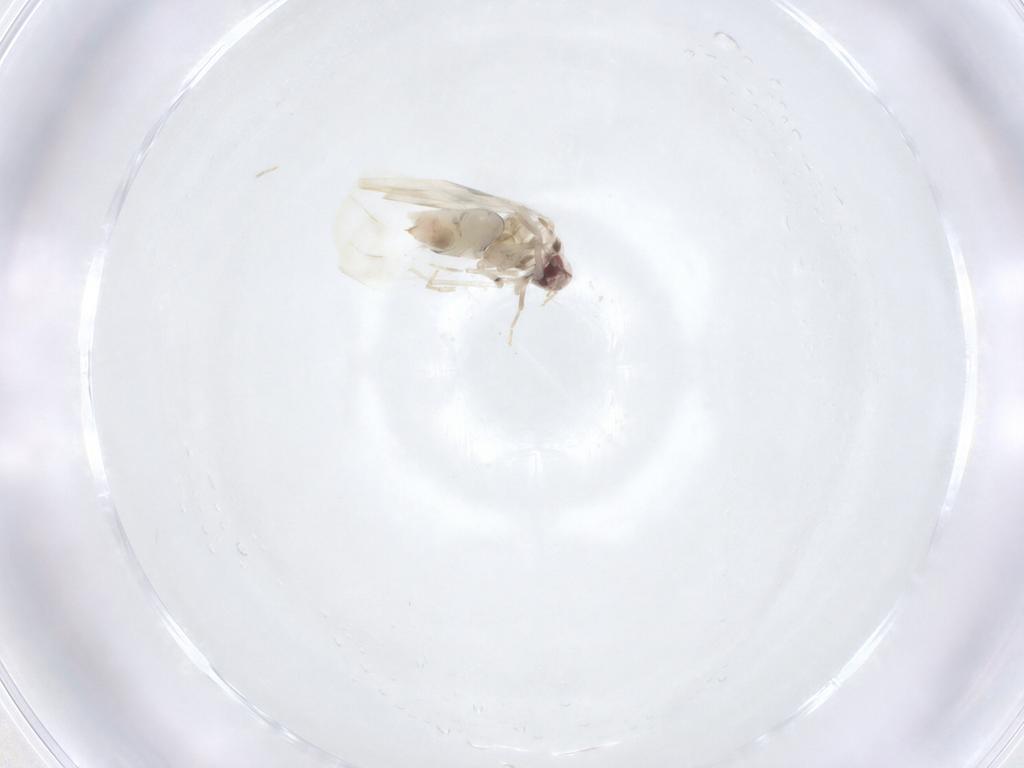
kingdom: Animalia
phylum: Arthropoda
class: Insecta
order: Hemiptera
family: Aleyrodidae
